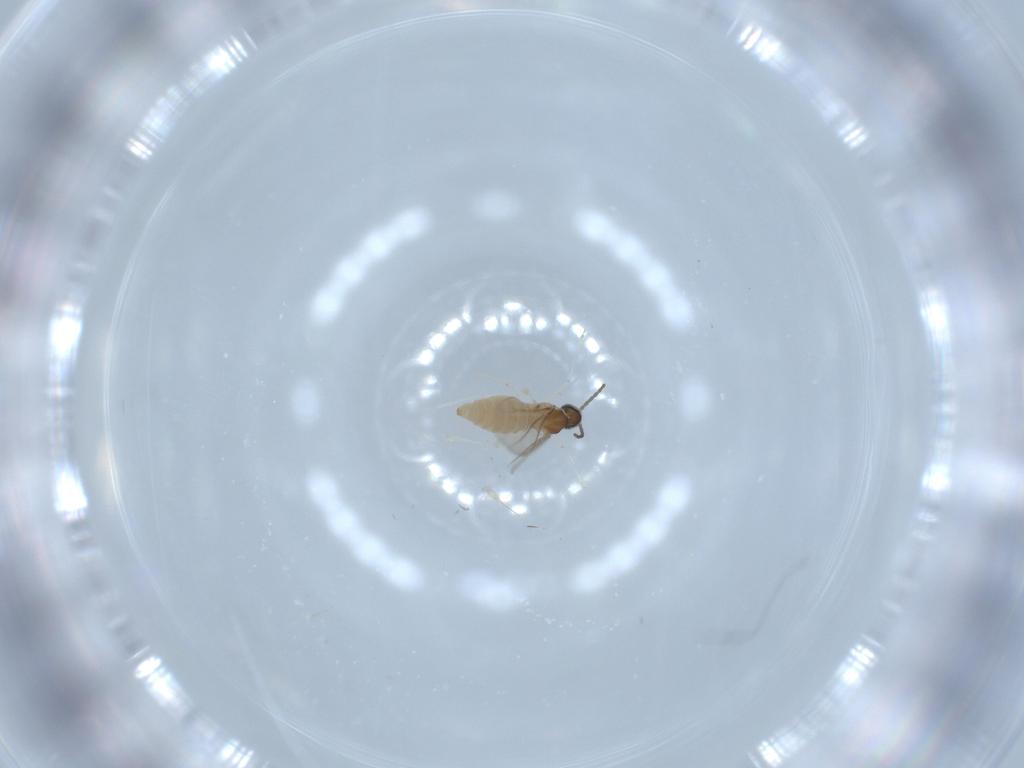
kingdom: Animalia
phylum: Arthropoda
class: Insecta
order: Diptera
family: Cecidomyiidae
